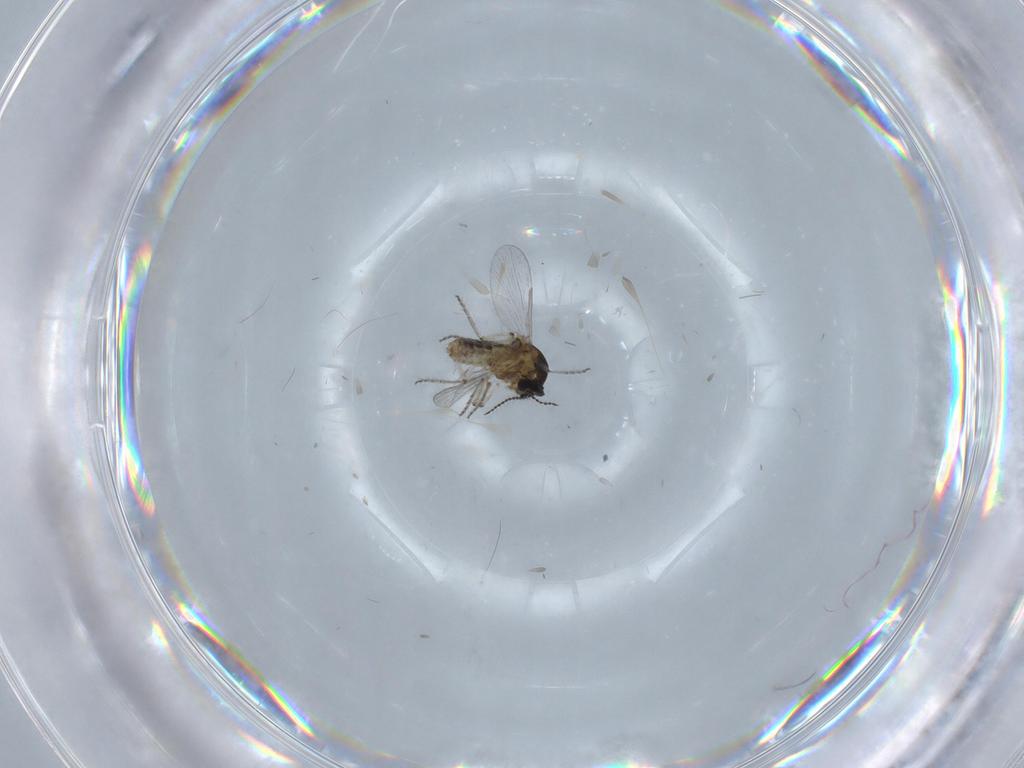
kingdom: Animalia
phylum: Arthropoda
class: Insecta
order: Diptera
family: Ceratopogonidae
